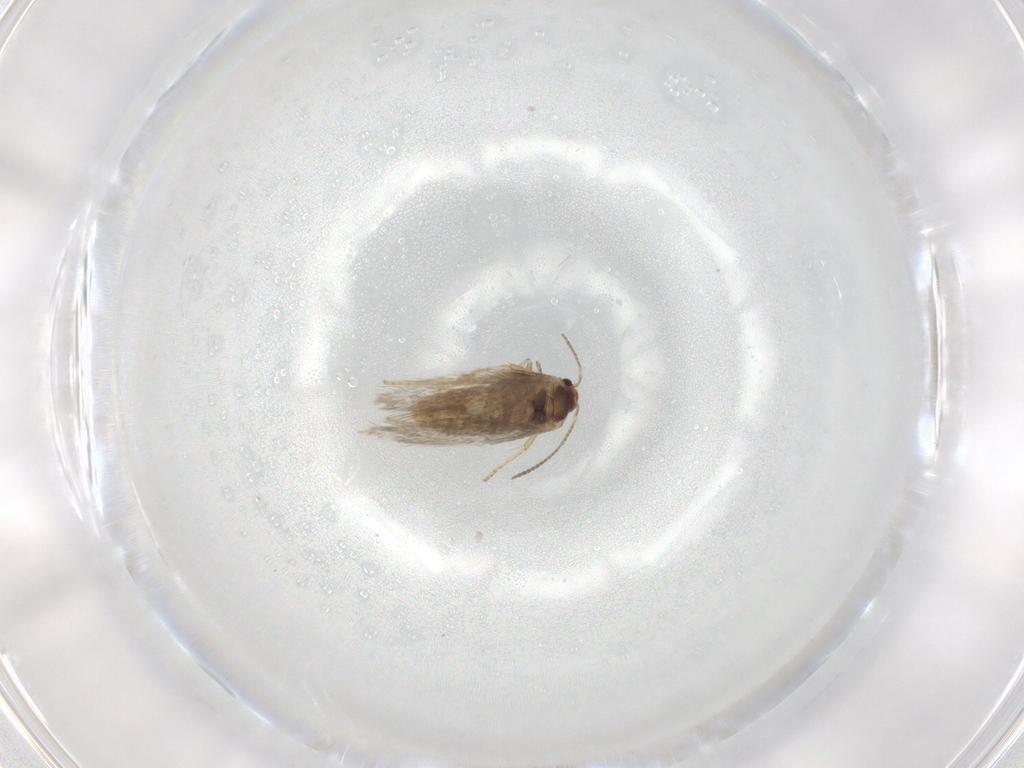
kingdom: Animalia
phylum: Arthropoda
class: Insecta
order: Lepidoptera
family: Nepticulidae
